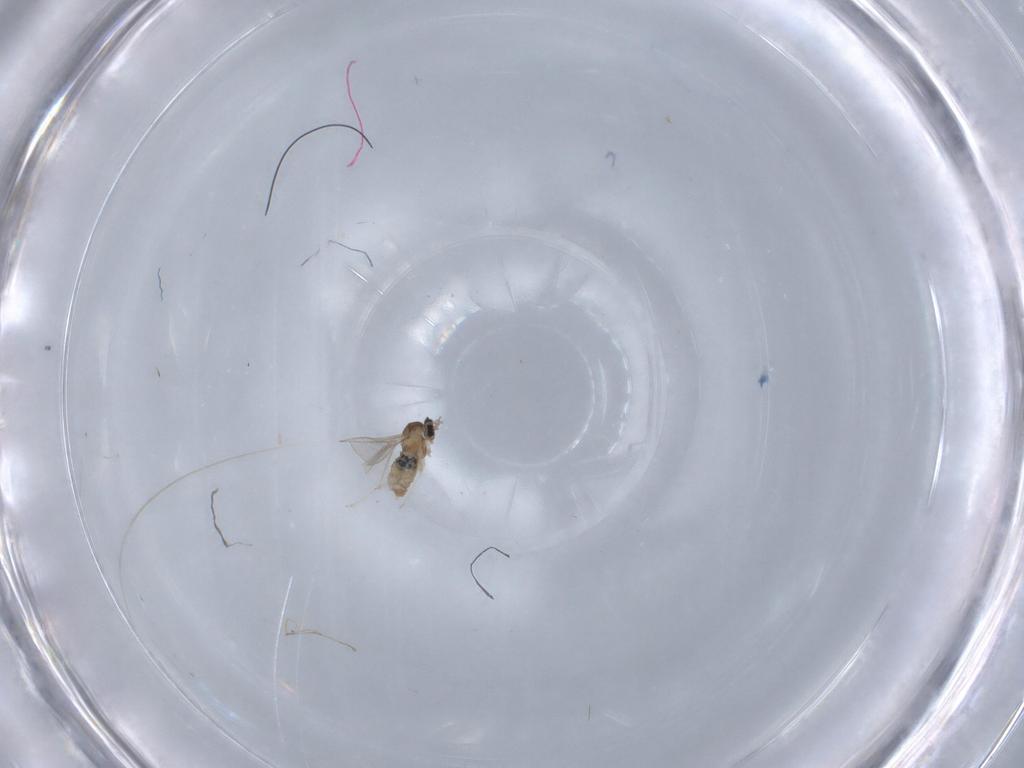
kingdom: Animalia
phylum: Arthropoda
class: Insecta
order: Diptera
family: Cecidomyiidae
